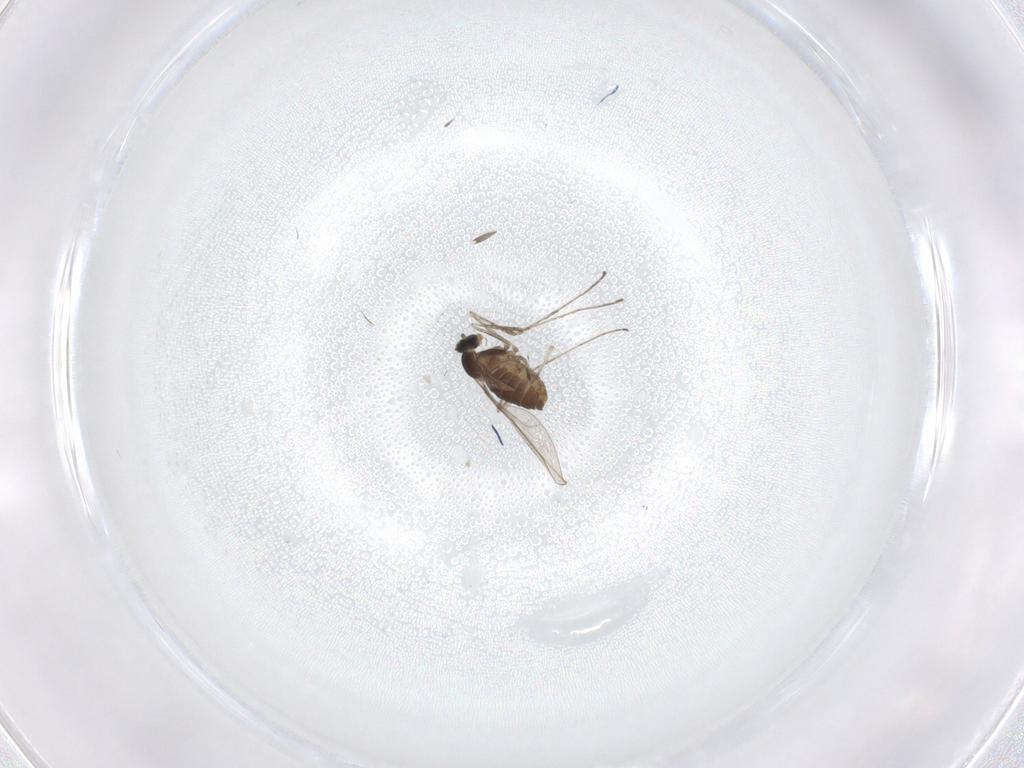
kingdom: Animalia
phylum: Arthropoda
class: Insecta
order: Diptera
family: Cecidomyiidae
